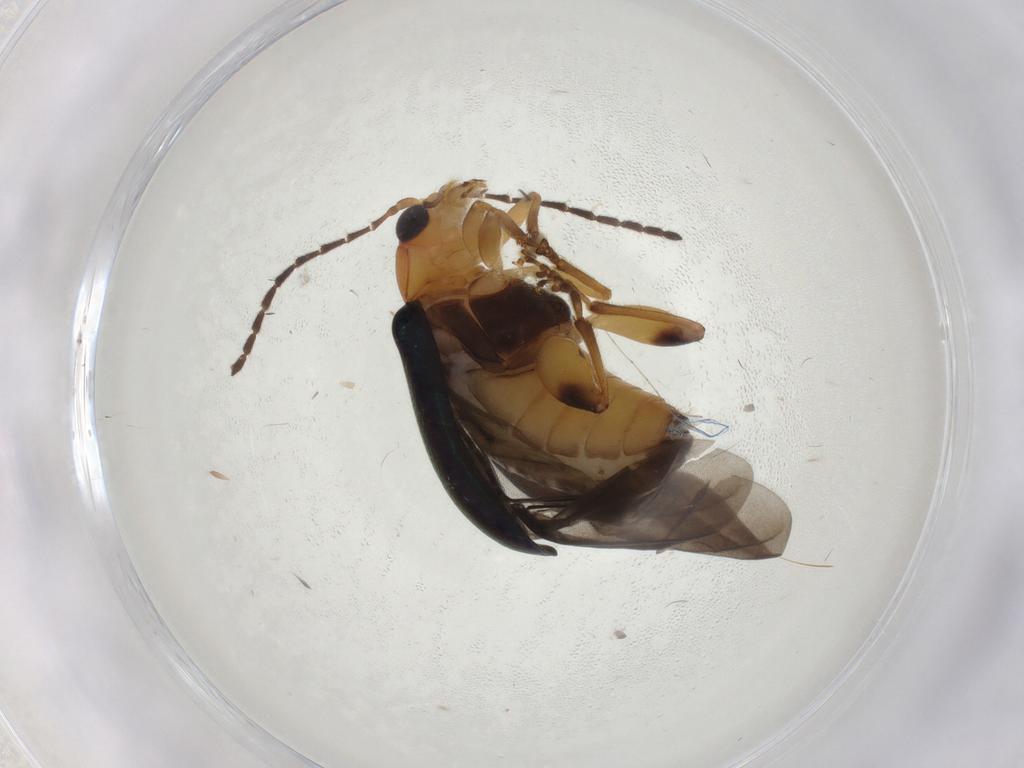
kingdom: Animalia
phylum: Arthropoda
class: Insecta
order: Coleoptera
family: Chrysomelidae
